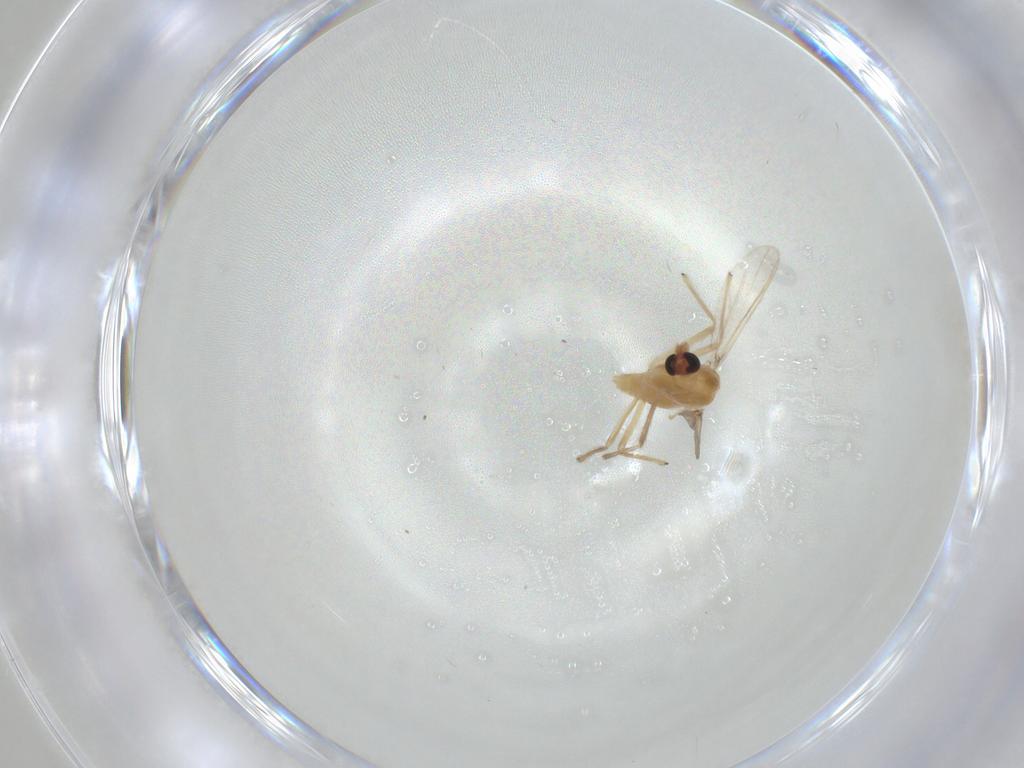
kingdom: Animalia
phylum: Arthropoda
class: Insecta
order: Diptera
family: Chironomidae
